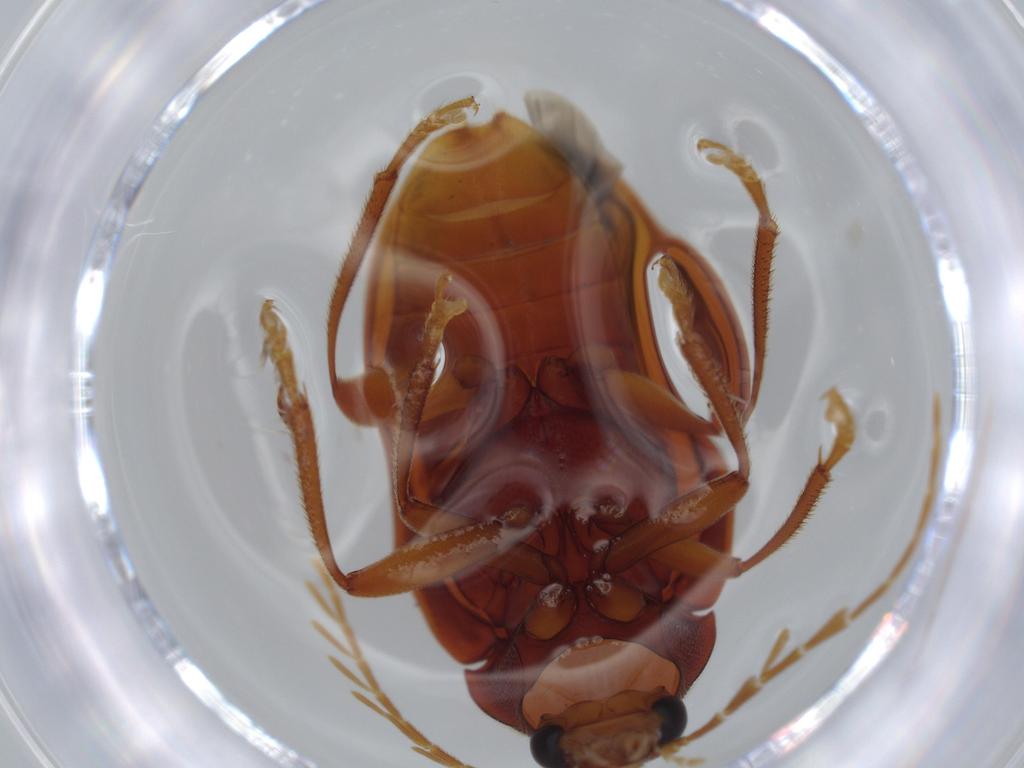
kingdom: Animalia
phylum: Arthropoda
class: Insecta
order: Coleoptera
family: Ptilodactylidae
